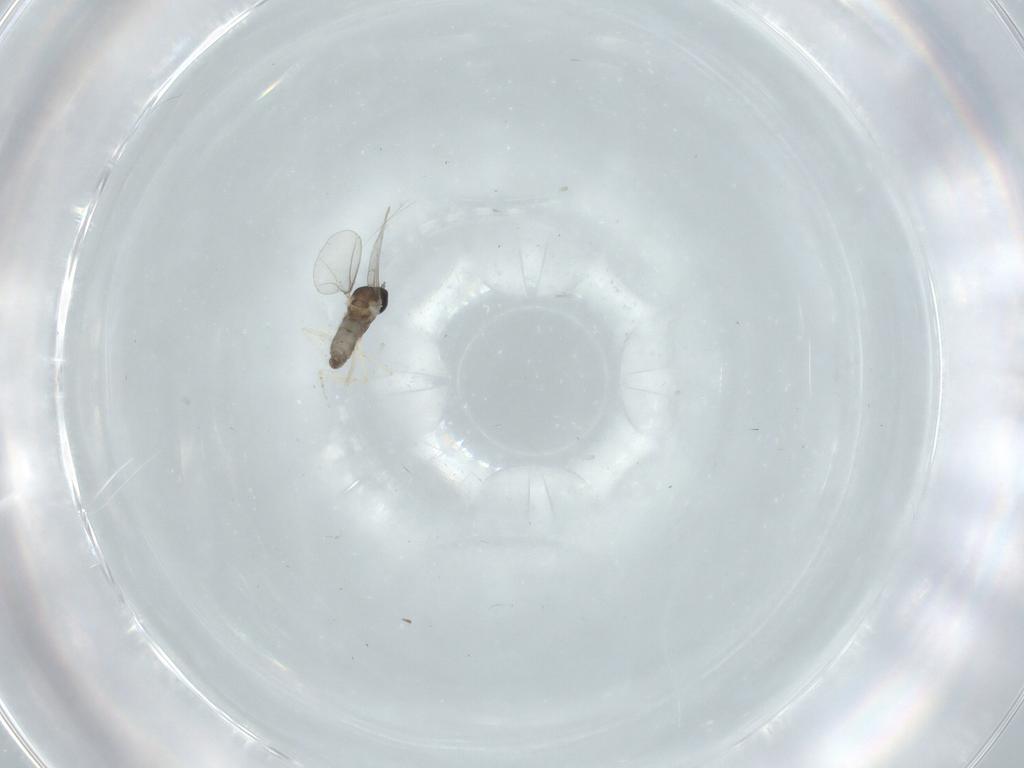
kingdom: Animalia
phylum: Arthropoda
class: Insecta
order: Diptera
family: Cecidomyiidae
